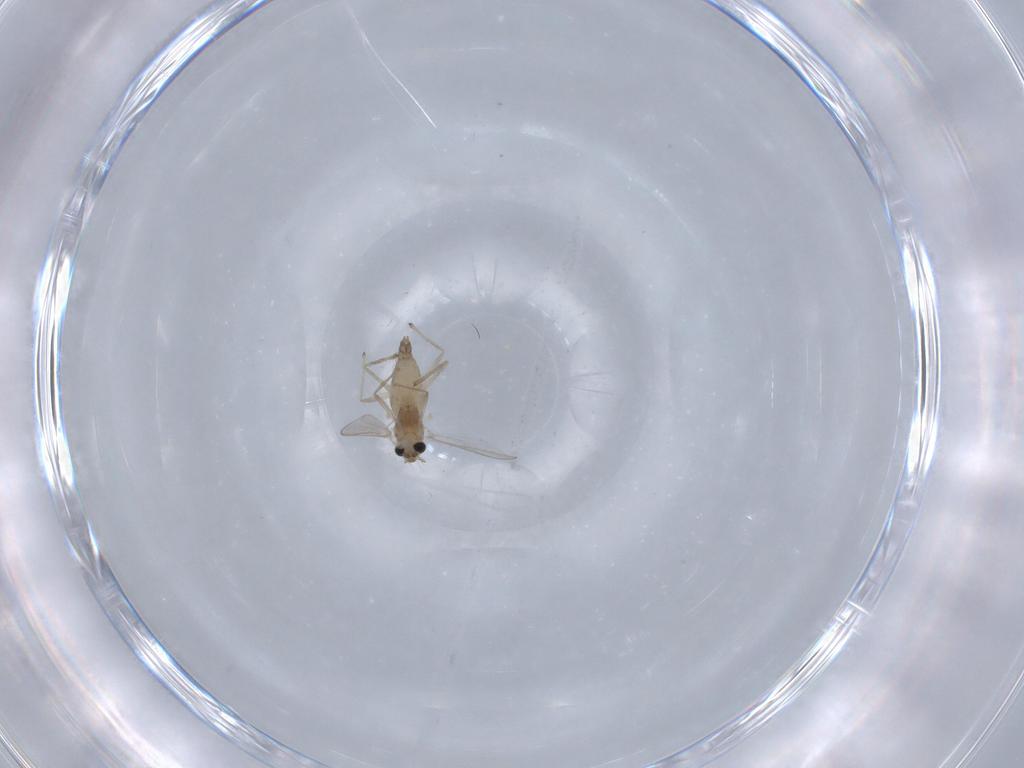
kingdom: Animalia
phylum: Arthropoda
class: Insecta
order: Diptera
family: Chironomidae
